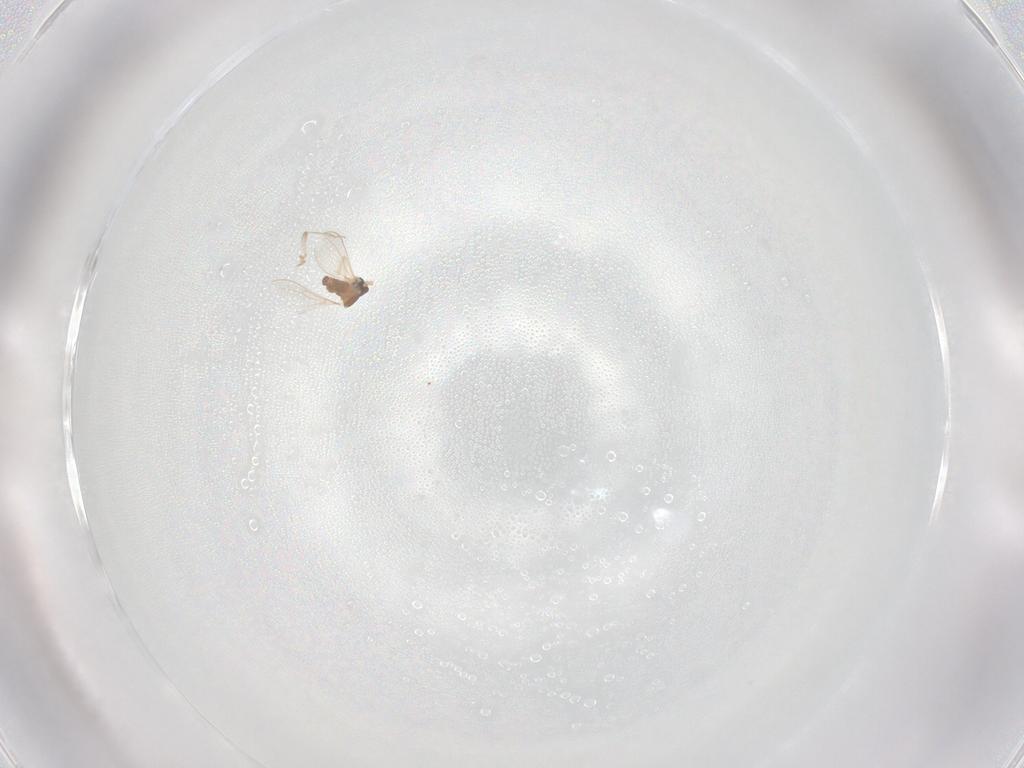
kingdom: Animalia
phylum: Arthropoda
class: Insecta
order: Diptera
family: Cecidomyiidae
